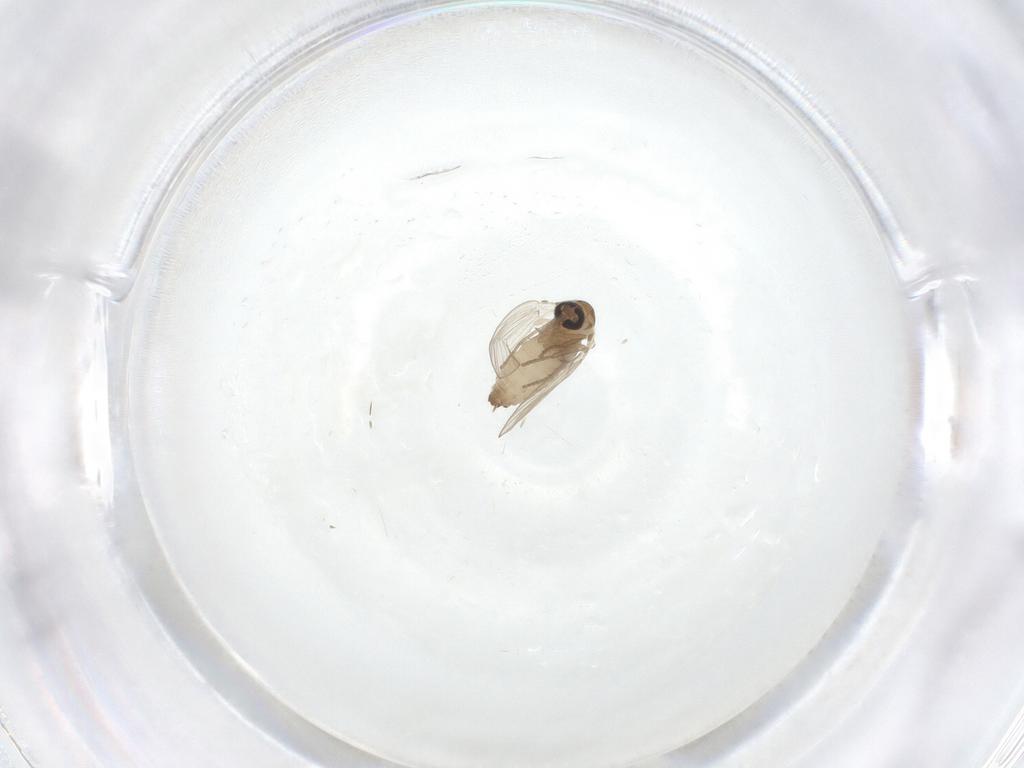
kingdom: Animalia
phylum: Arthropoda
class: Insecta
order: Diptera
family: Psychodidae
